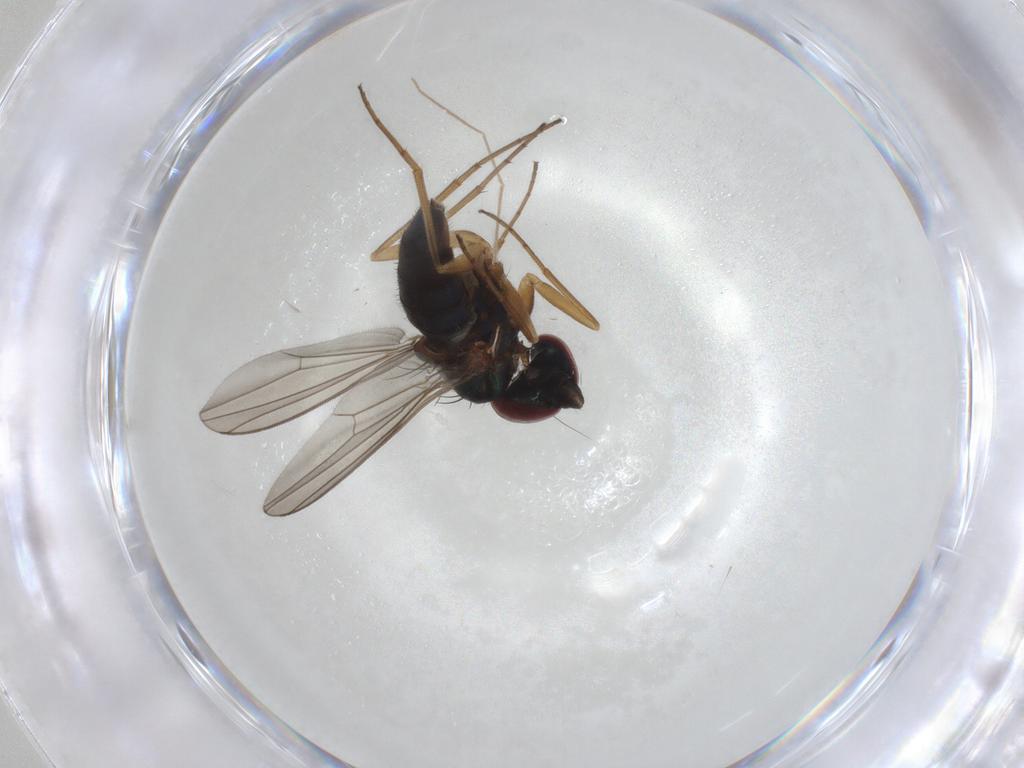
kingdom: Animalia
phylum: Arthropoda
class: Insecta
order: Diptera
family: Dolichopodidae
